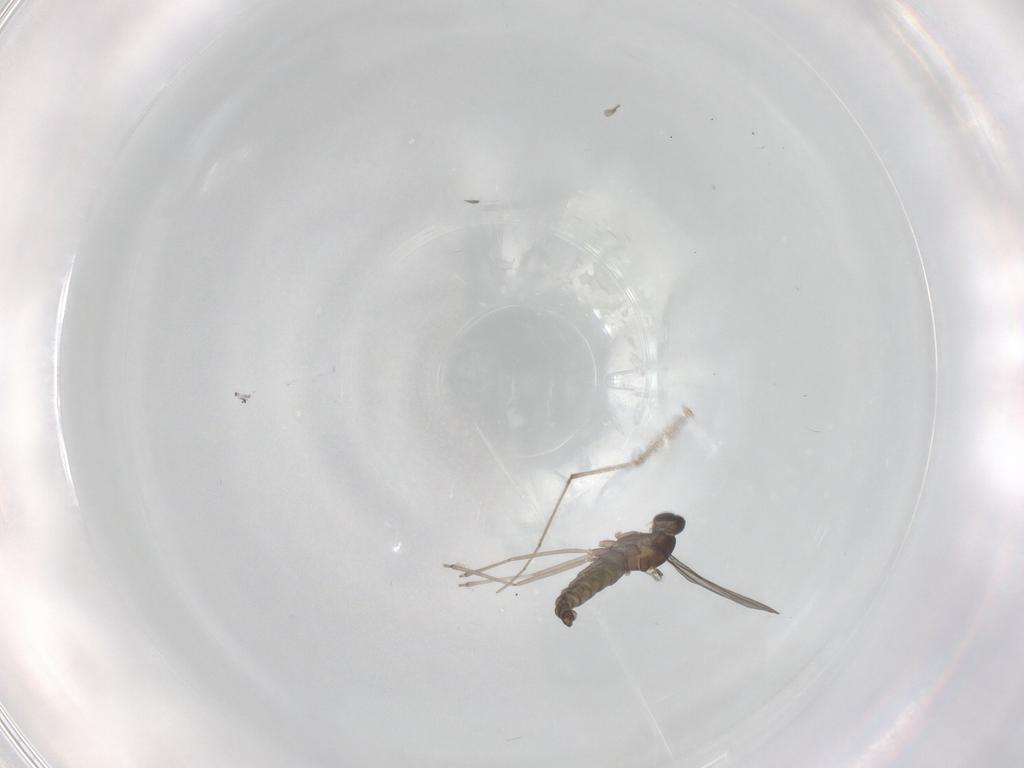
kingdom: Animalia
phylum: Arthropoda
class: Insecta
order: Diptera
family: Cecidomyiidae
